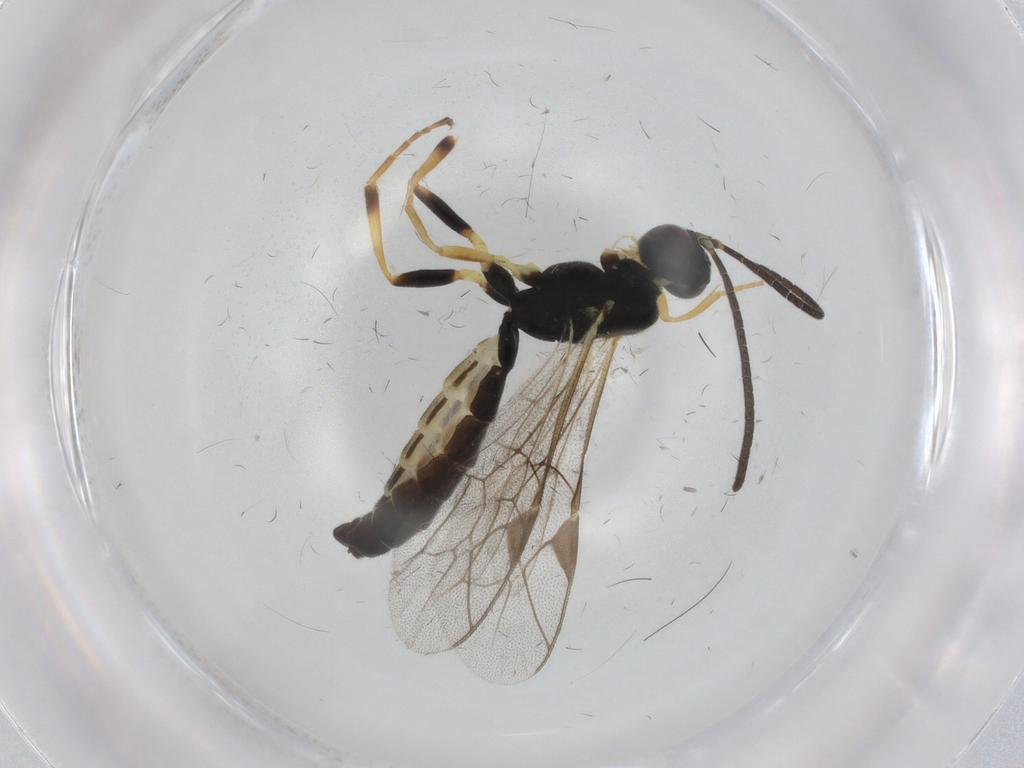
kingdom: Animalia
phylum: Arthropoda
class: Insecta
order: Hymenoptera
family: Ichneumonidae
